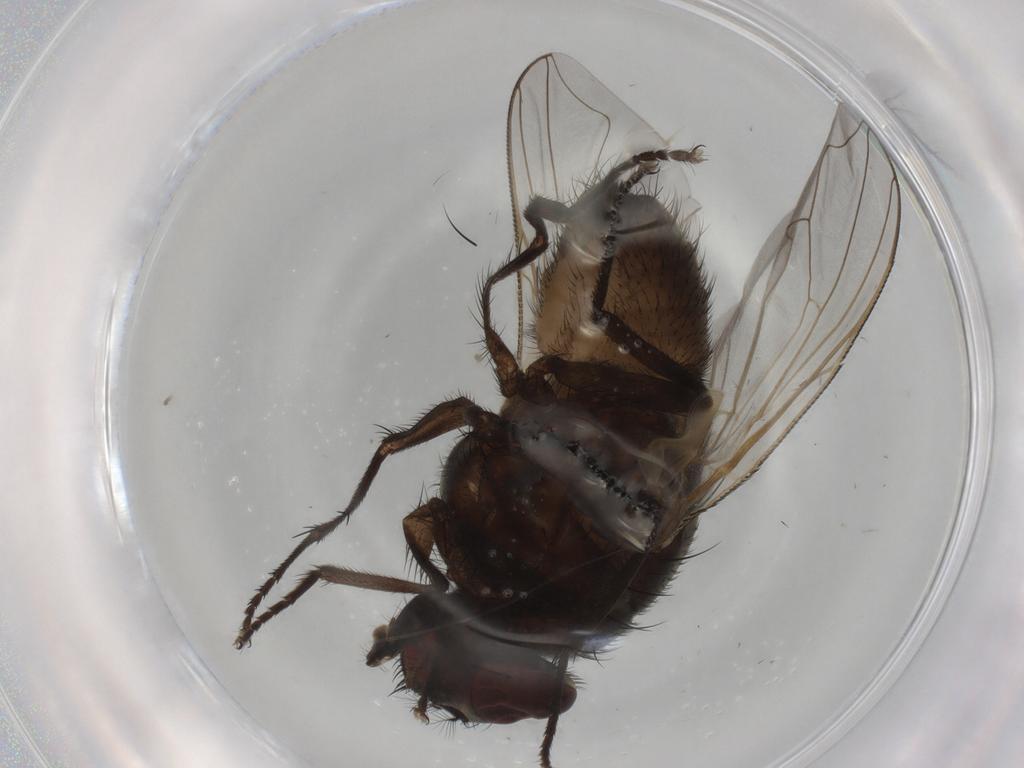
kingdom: Animalia
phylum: Arthropoda
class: Insecta
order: Diptera
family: Muscidae
